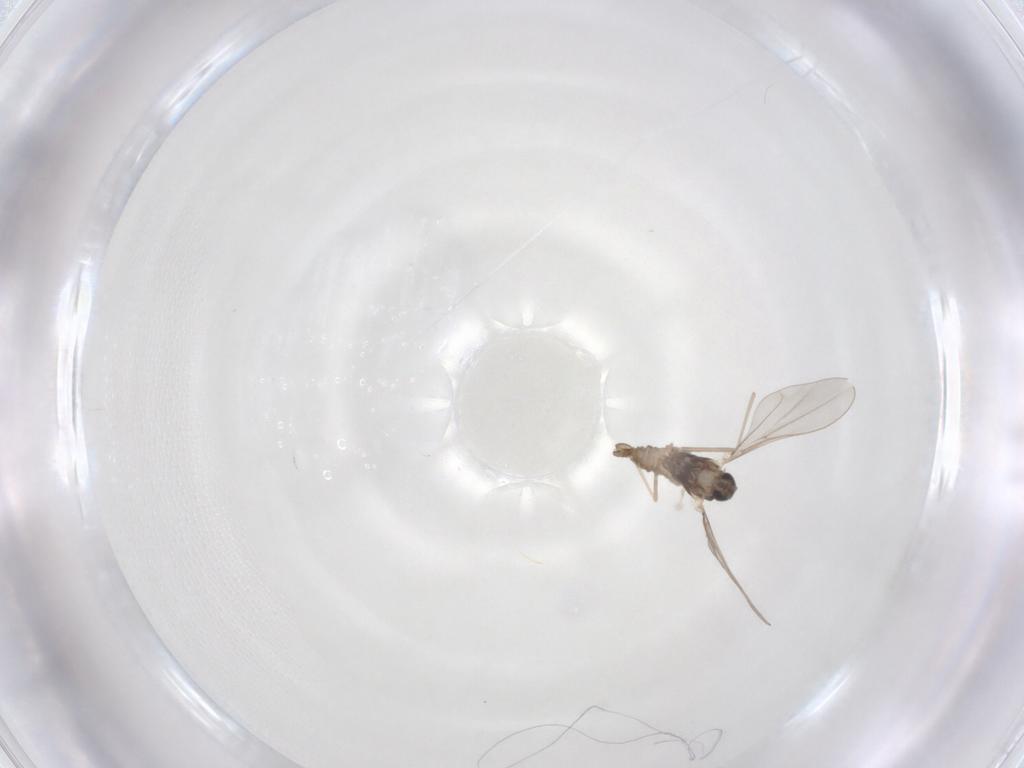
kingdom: Animalia
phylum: Arthropoda
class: Insecta
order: Diptera
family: Cecidomyiidae
